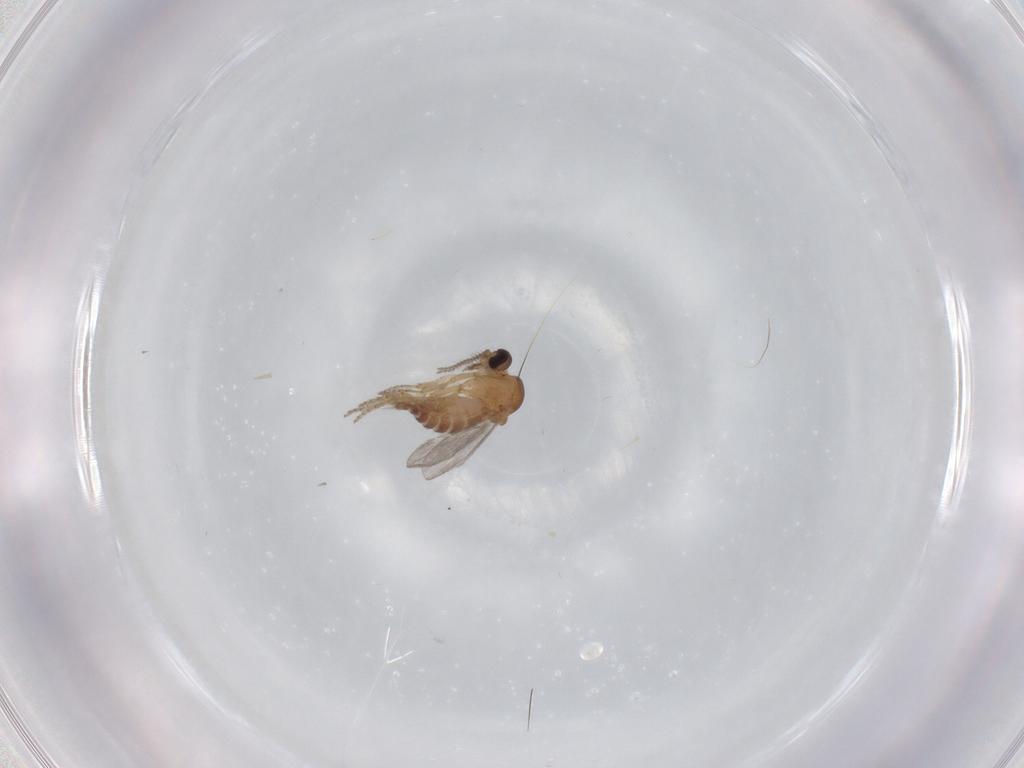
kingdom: Animalia
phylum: Arthropoda
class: Insecta
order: Diptera
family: Ceratopogonidae
